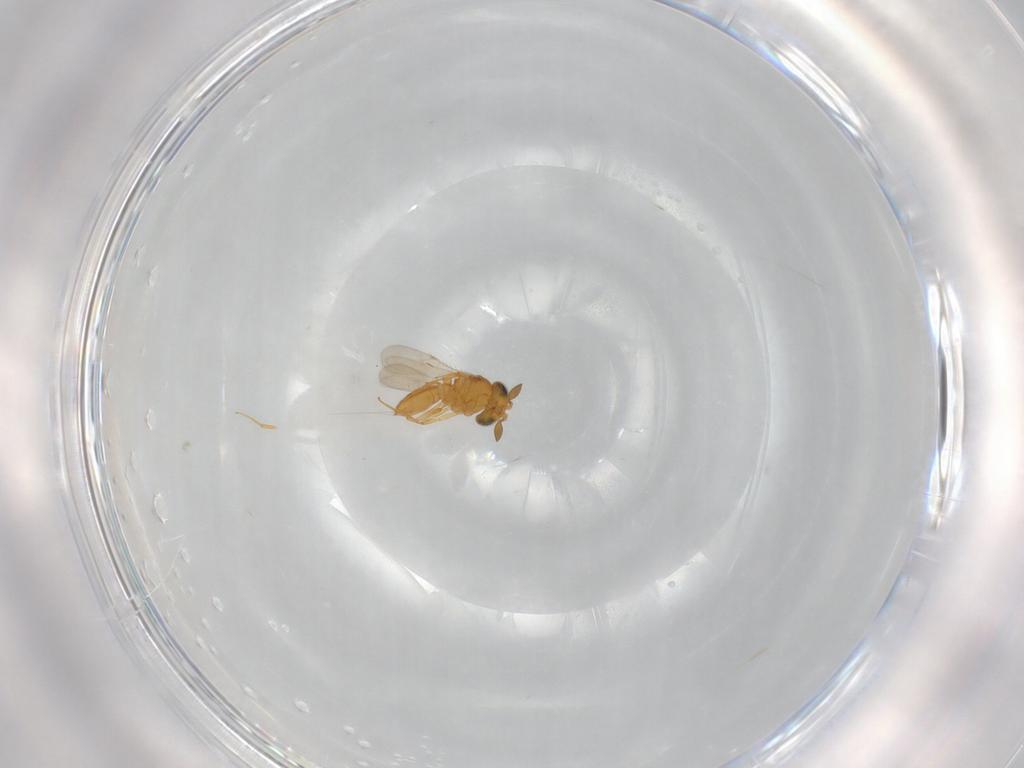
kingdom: Animalia
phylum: Arthropoda
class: Insecta
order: Hymenoptera
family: Scelionidae
